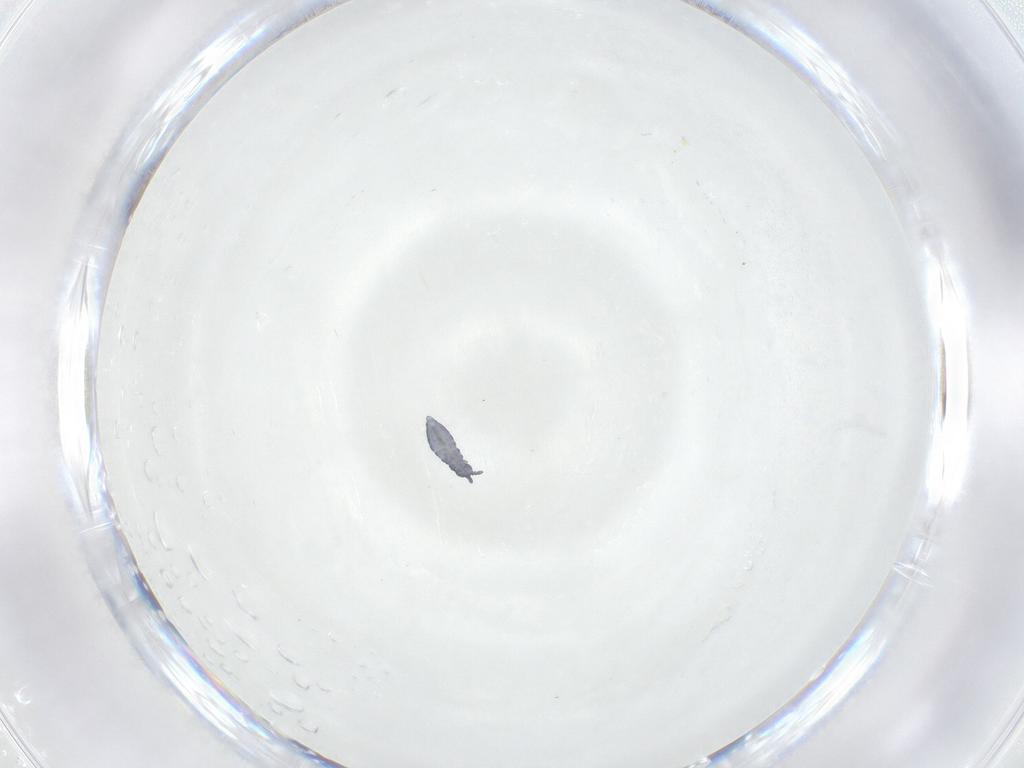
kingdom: Animalia
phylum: Arthropoda
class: Collembola
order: Poduromorpha
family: Hypogastruridae
